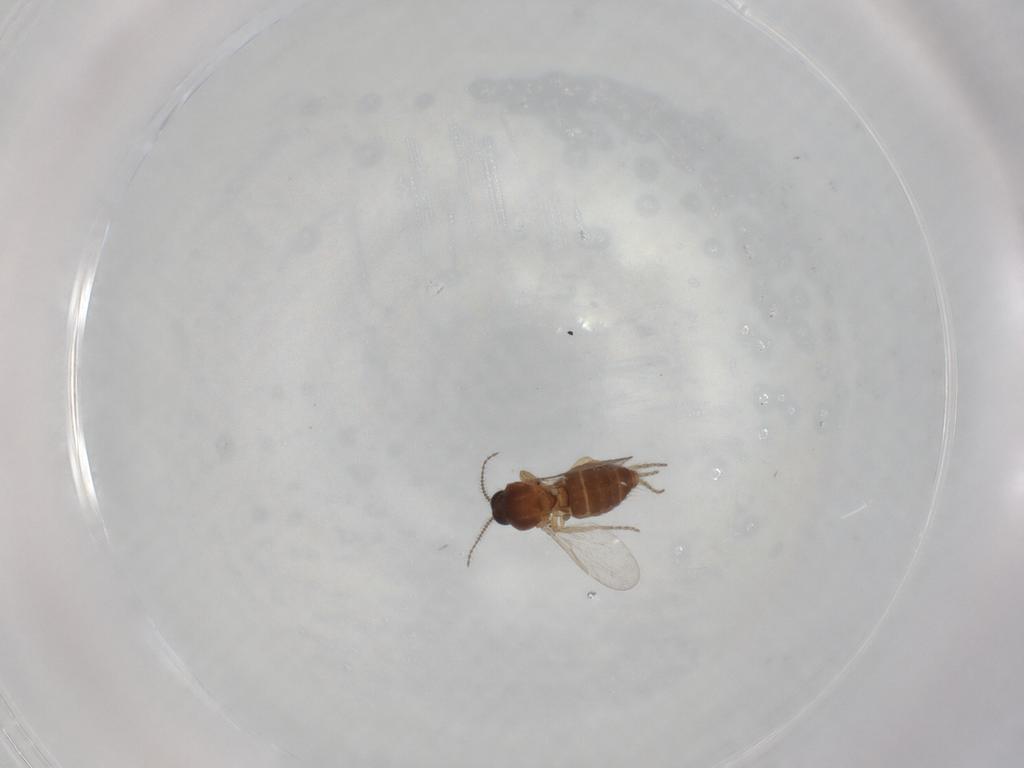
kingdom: Animalia
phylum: Arthropoda
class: Insecta
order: Diptera
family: Ceratopogonidae
